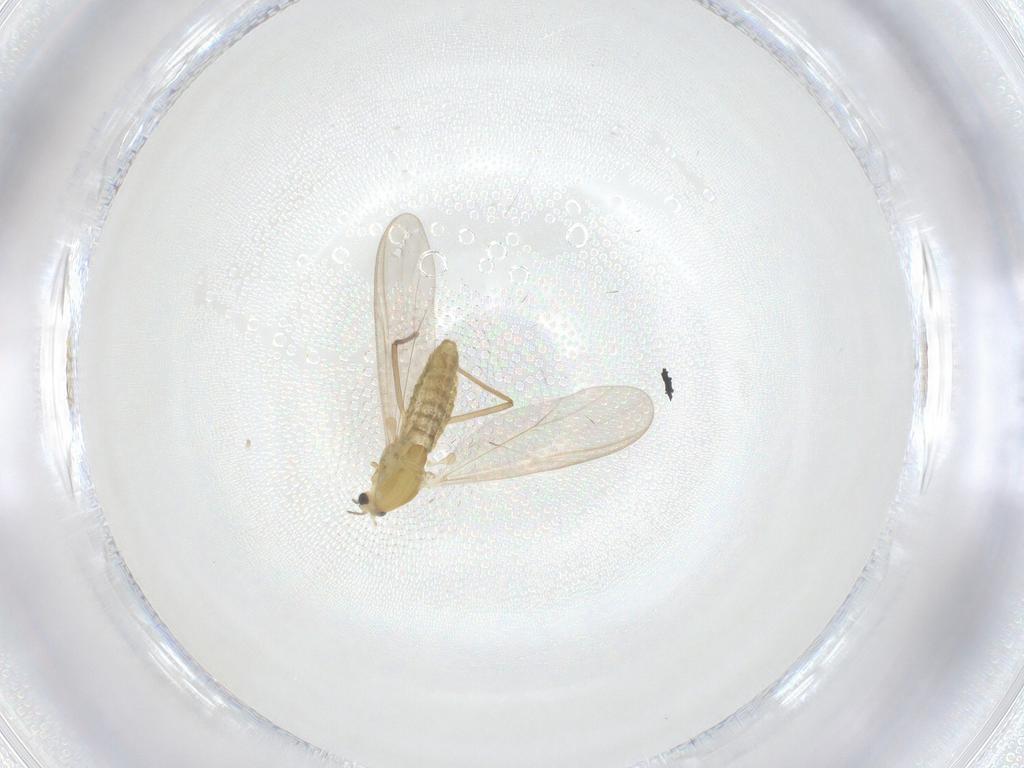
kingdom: Animalia
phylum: Arthropoda
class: Insecta
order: Diptera
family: Chironomidae
